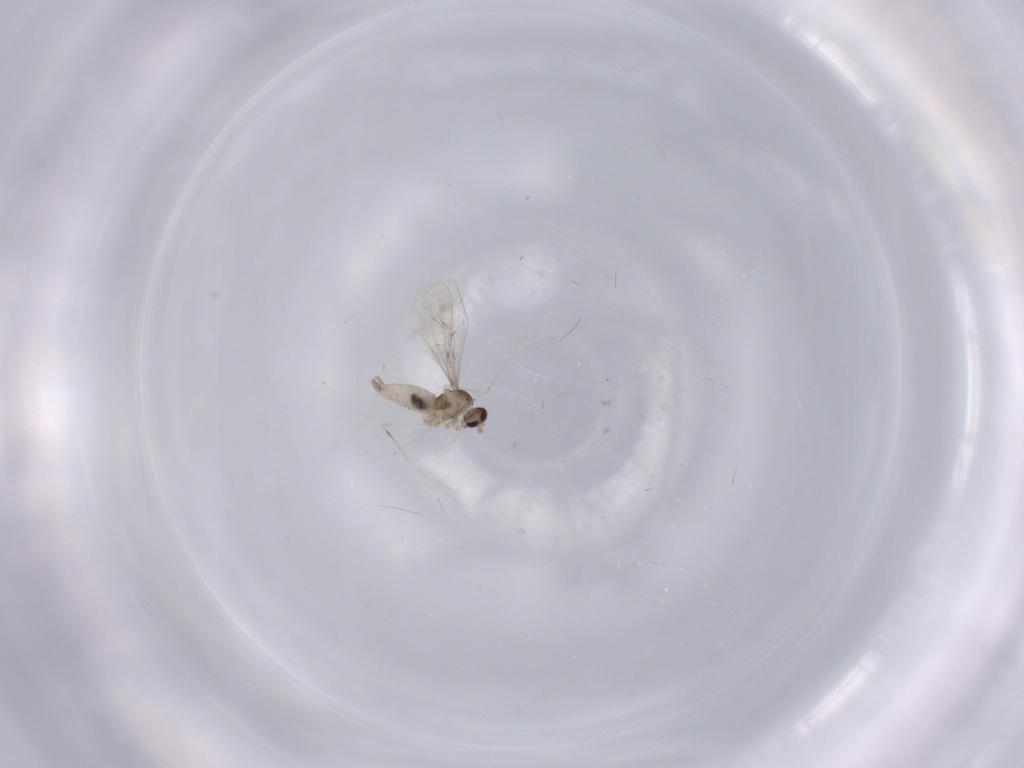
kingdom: Animalia
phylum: Arthropoda
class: Insecta
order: Diptera
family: Cecidomyiidae
